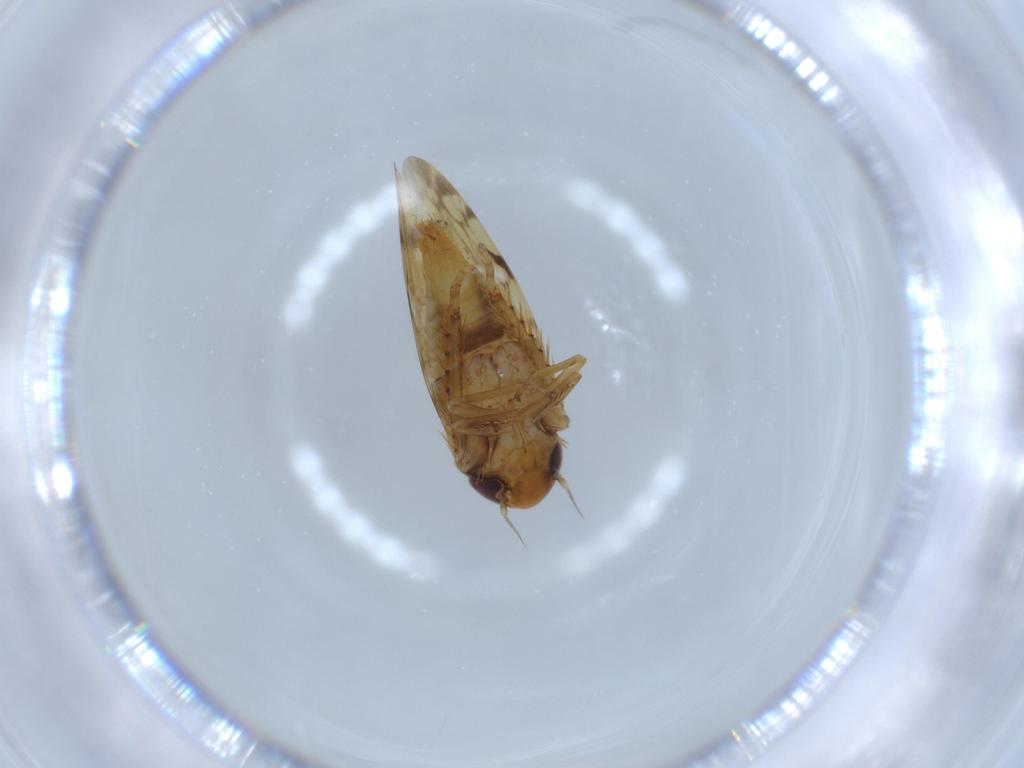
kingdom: Animalia
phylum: Arthropoda
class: Insecta
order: Hemiptera
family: Cicadellidae
